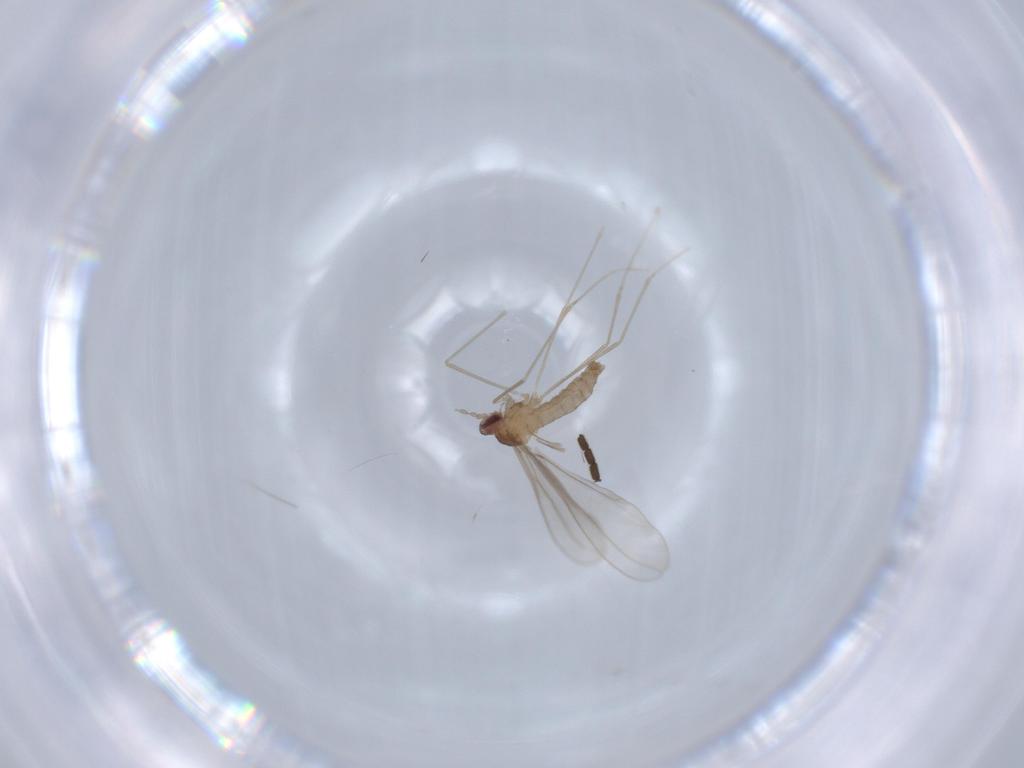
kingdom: Animalia
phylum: Arthropoda
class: Insecta
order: Diptera
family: Cecidomyiidae
